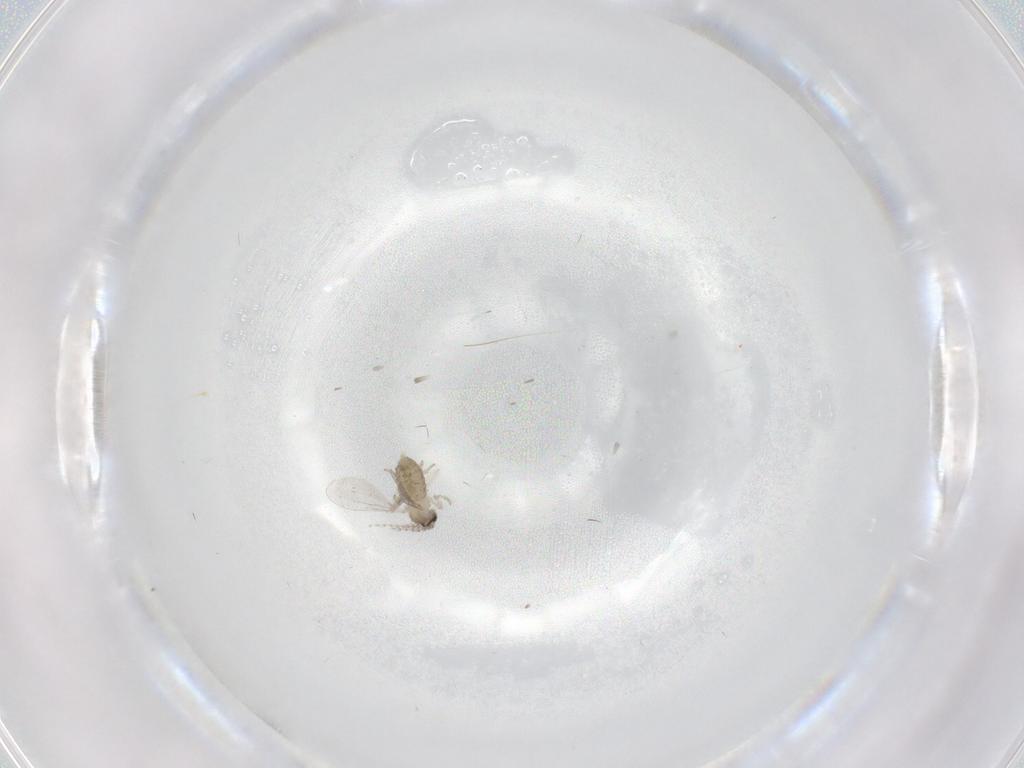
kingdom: Animalia
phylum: Arthropoda
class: Insecta
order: Diptera
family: Cecidomyiidae
